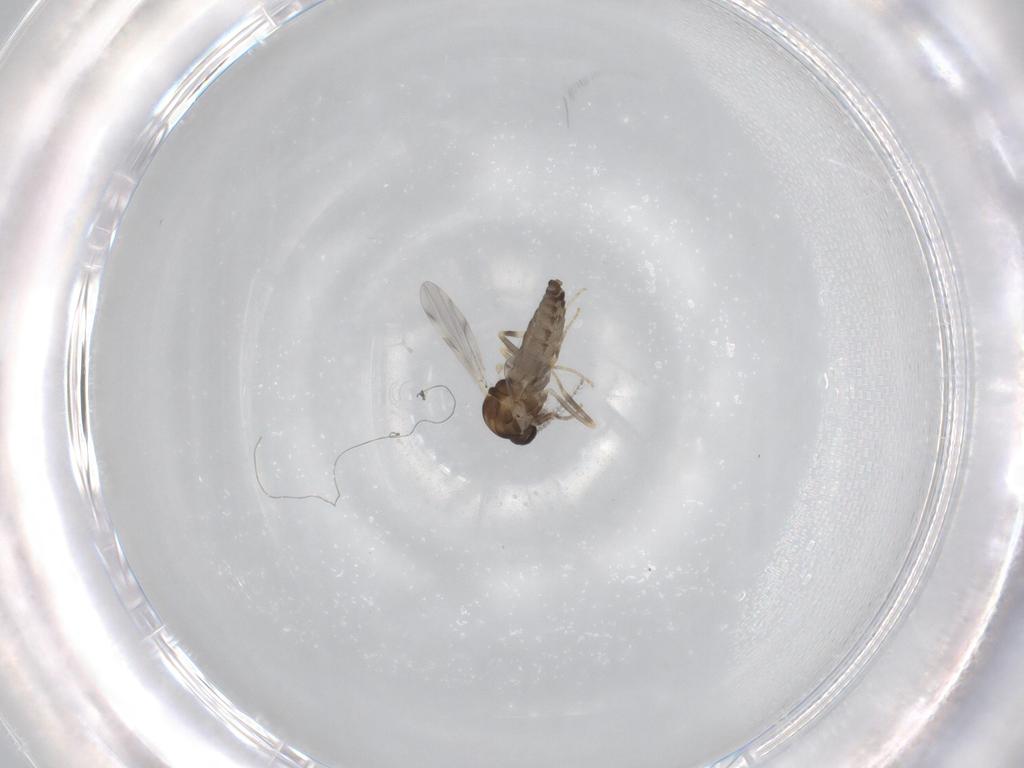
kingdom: Animalia
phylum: Arthropoda
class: Insecta
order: Diptera
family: Ceratopogonidae
